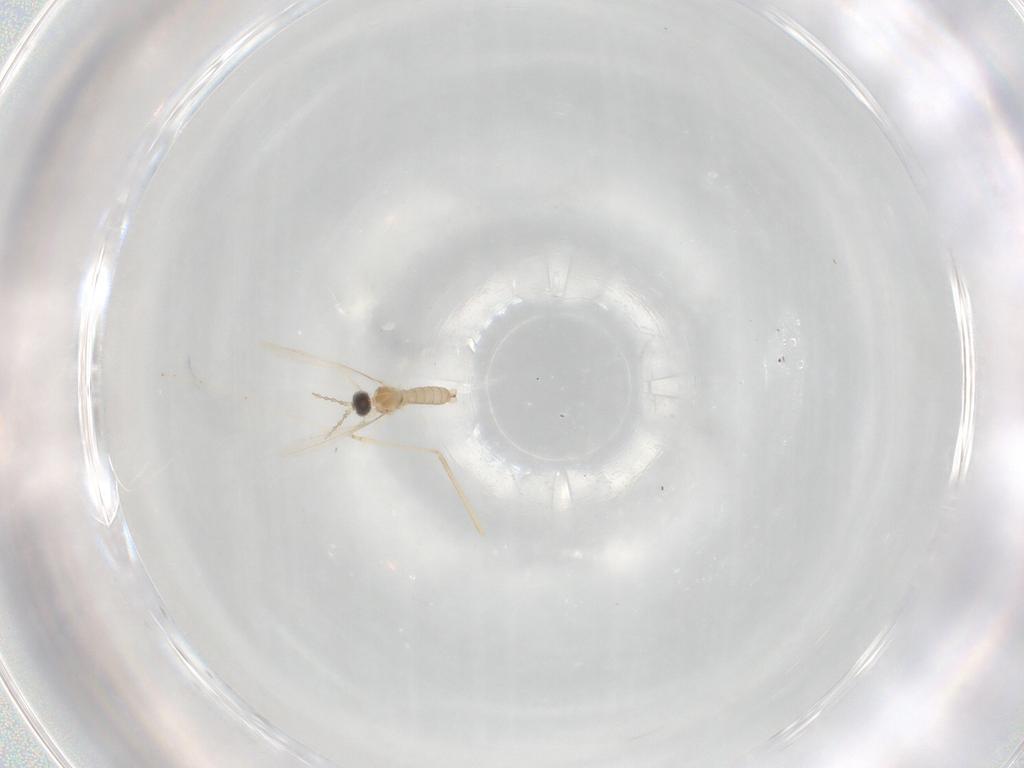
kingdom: Animalia
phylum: Arthropoda
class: Insecta
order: Diptera
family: Cecidomyiidae
